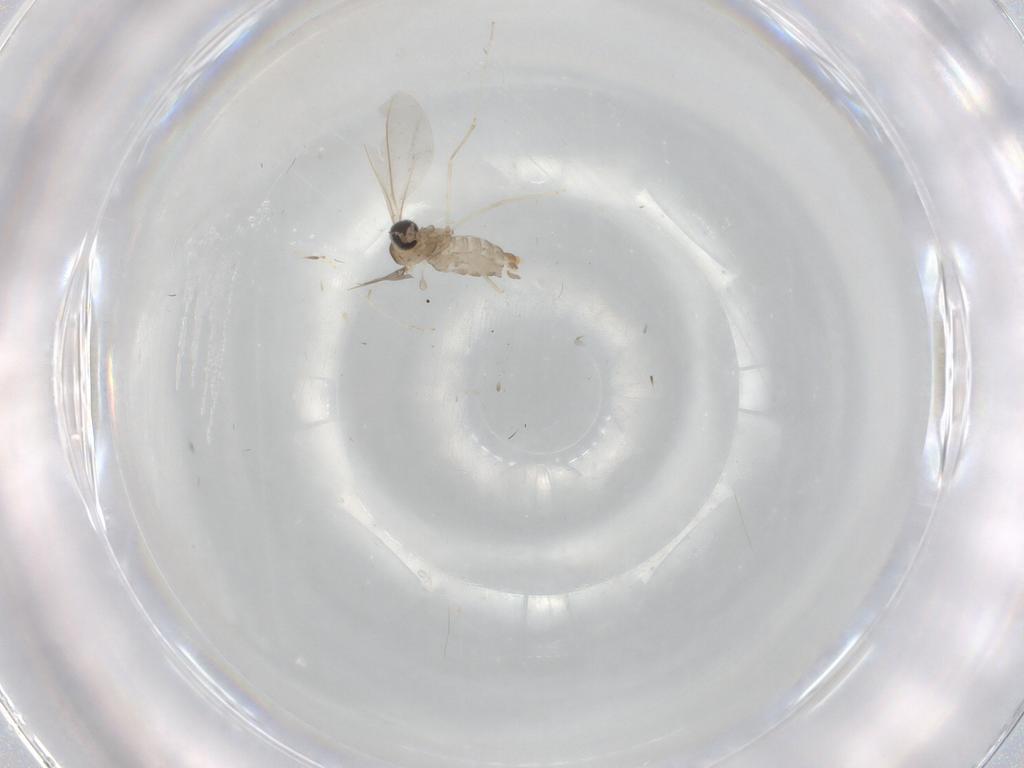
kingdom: Animalia
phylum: Arthropoda
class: Insecta
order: Diptera
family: Cecidomyiidae
